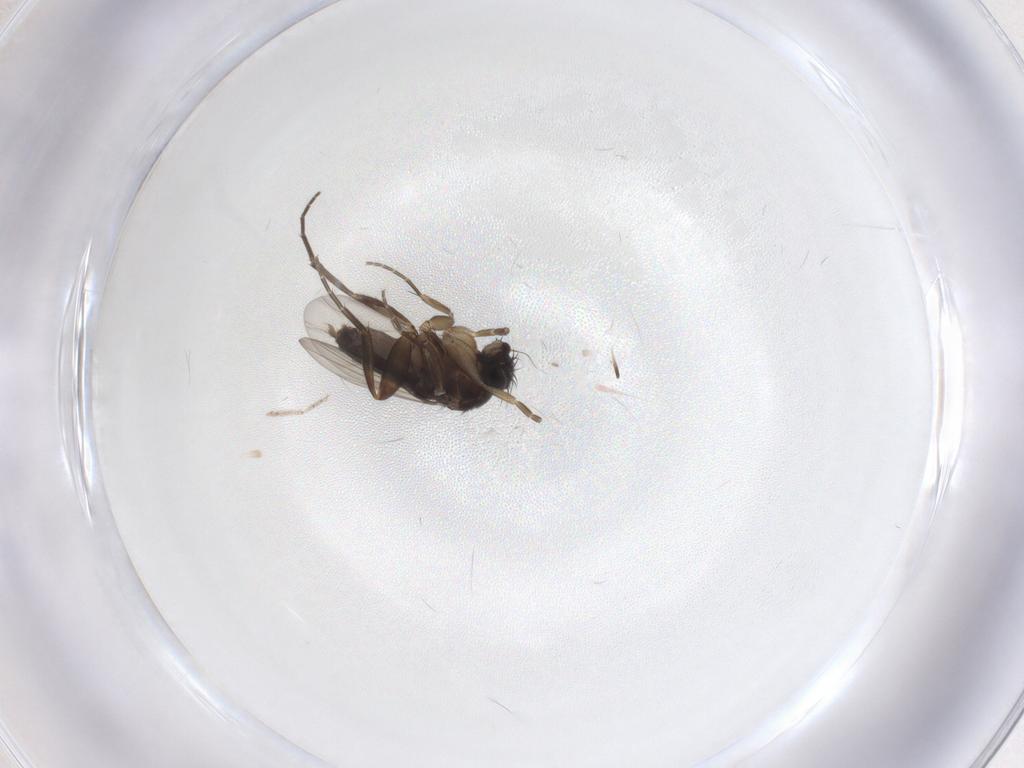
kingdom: Animalia
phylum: Arthropoda
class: Insecta
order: Diptera
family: Phoridae
